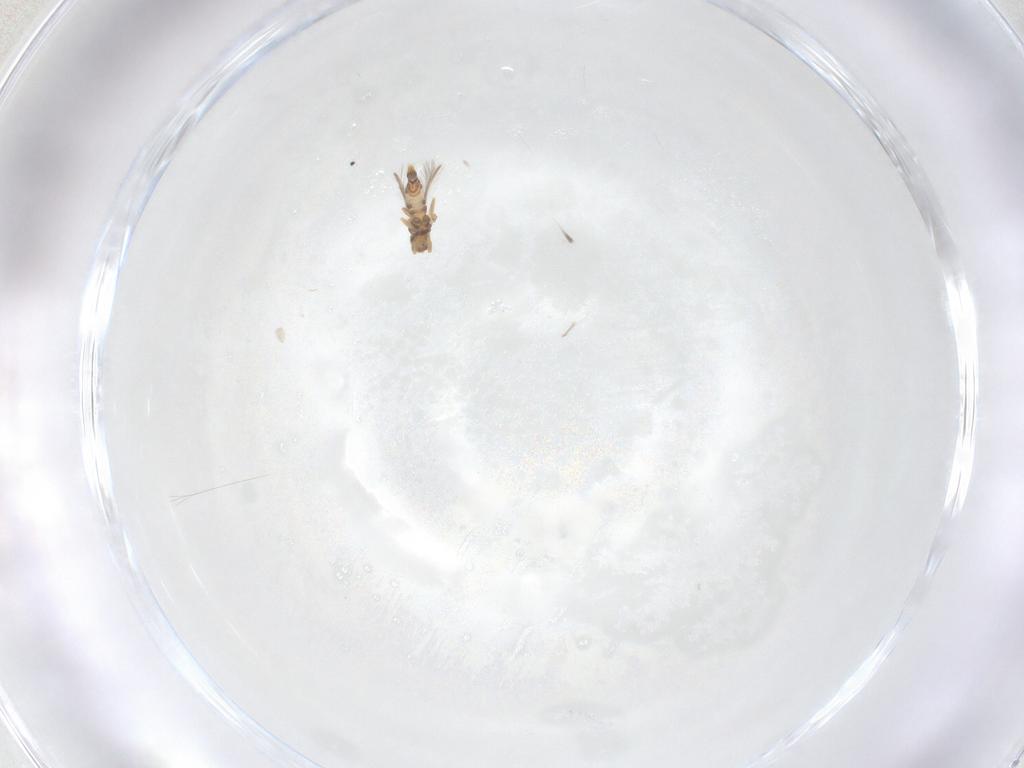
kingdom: Animalia
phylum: Arthropoda
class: Insecta
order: Thysanoptera
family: Thripidae
